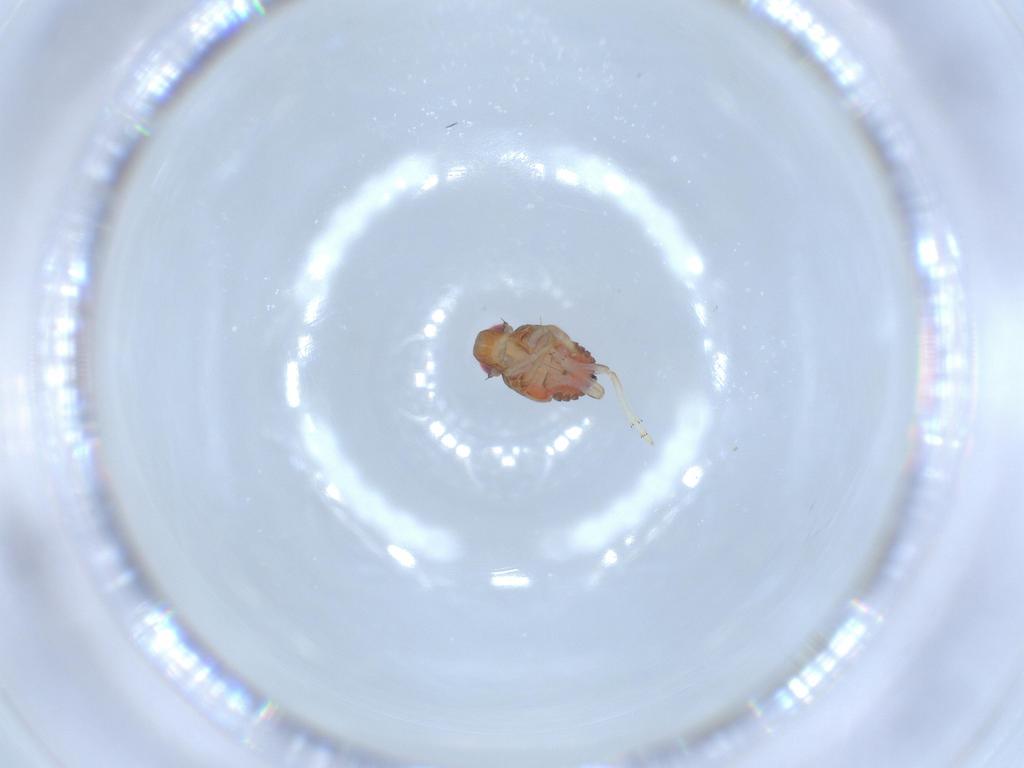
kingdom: Animalia
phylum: Arthropoda
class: Insecta
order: Hemiptera
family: Issidae
